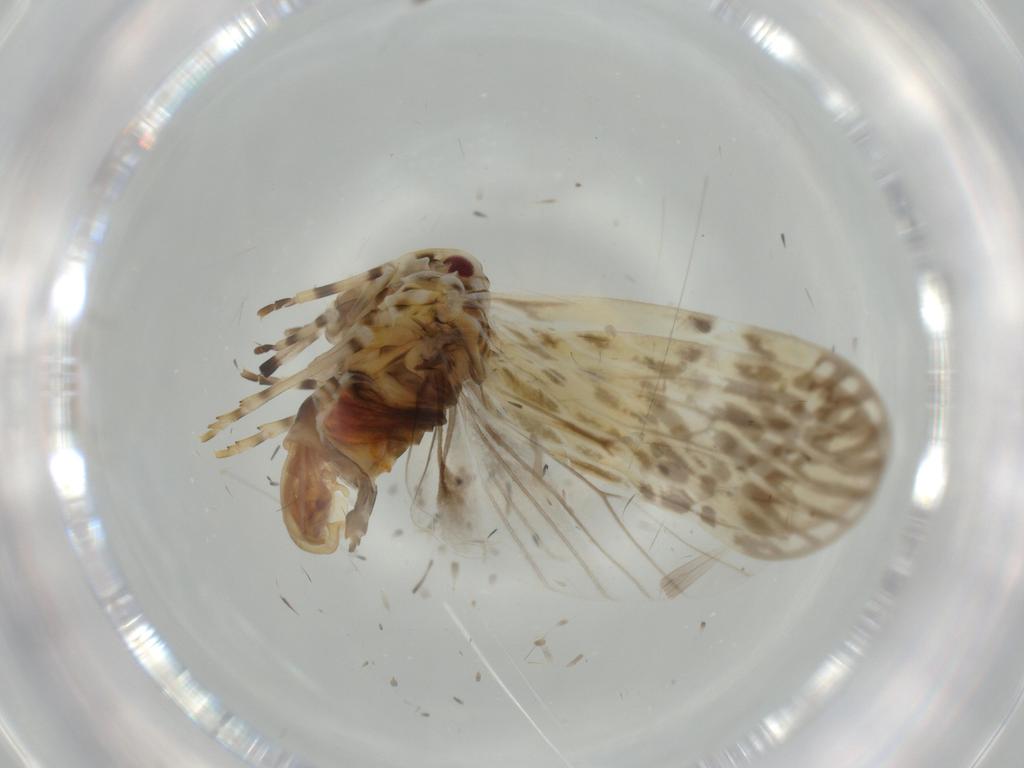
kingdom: Animalia
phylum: Arthropoda
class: Insecta
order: Hemiptera
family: Derbidae
